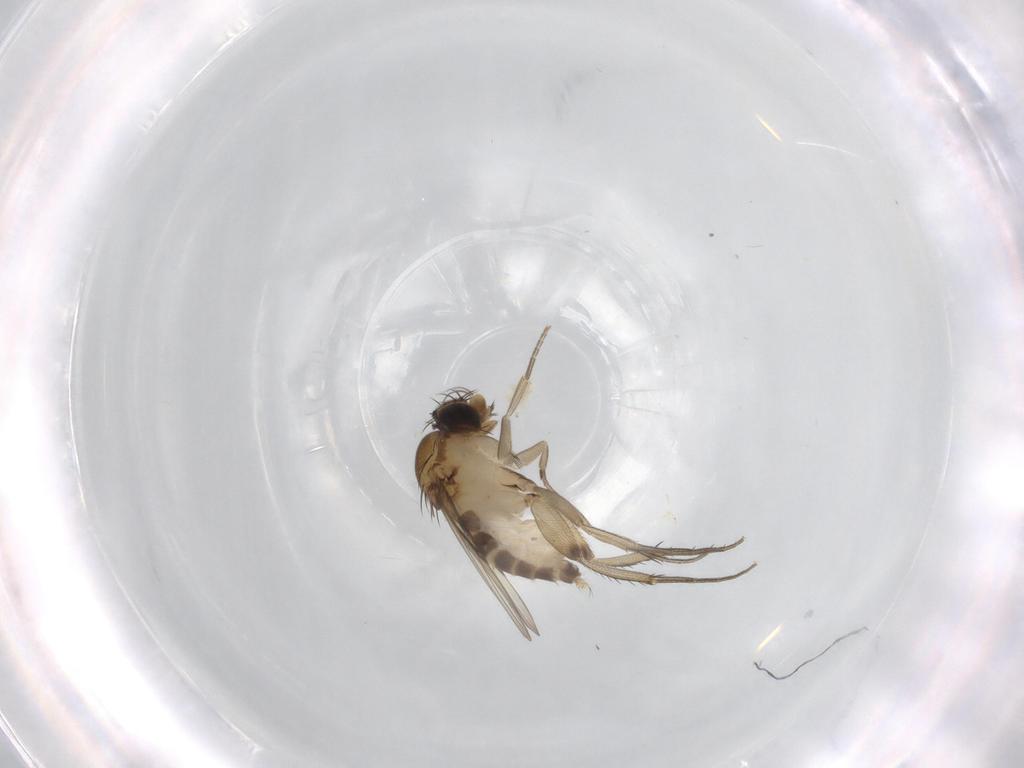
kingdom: Animalia
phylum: Arthropoda
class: Insecta
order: Diptera
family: Phoridae
